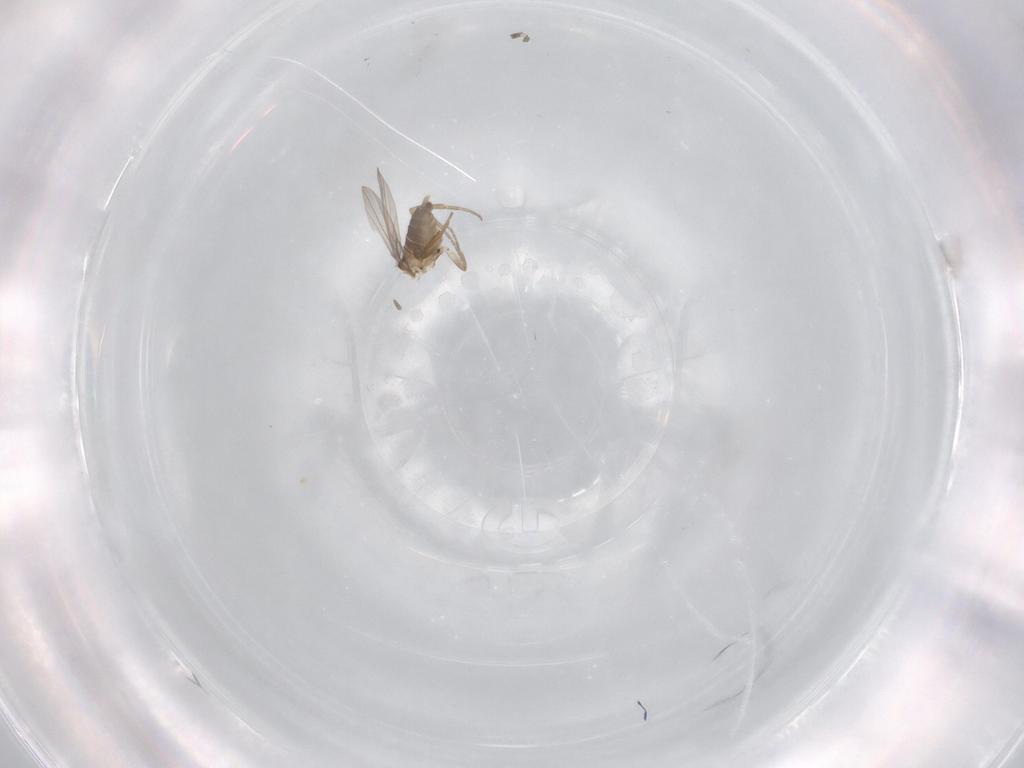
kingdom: Animalia
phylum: Arthropoda
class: Insecta
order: Diptera
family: Phoridae
